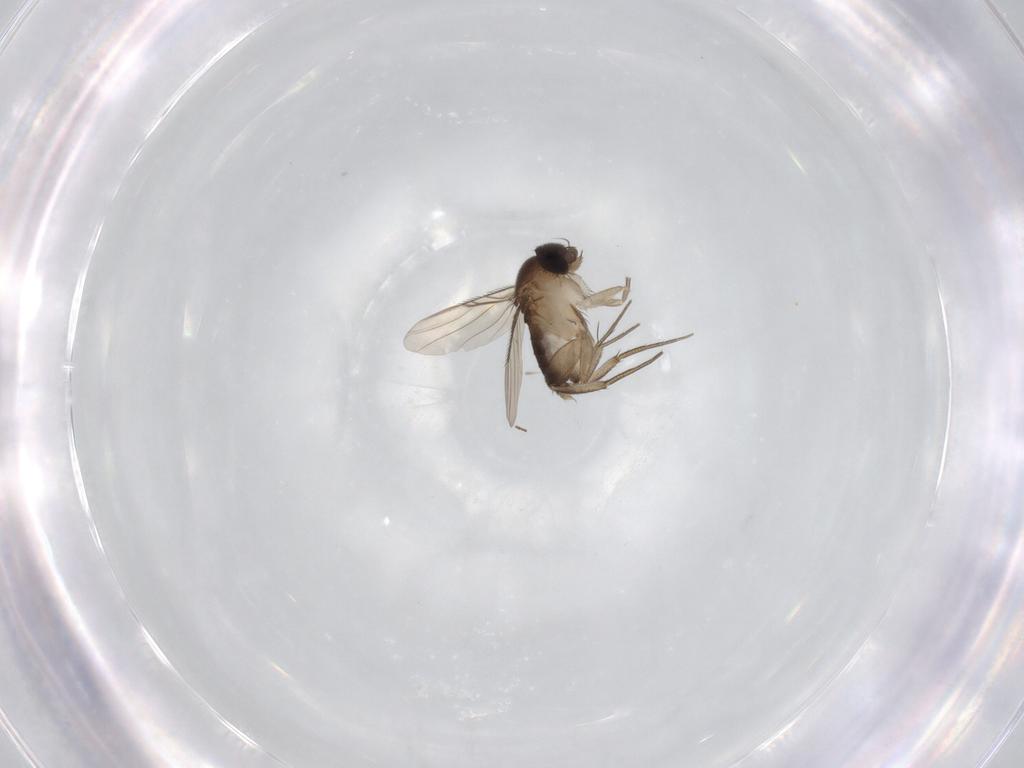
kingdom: Animalia
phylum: Arthropoda
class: Insecta
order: Diptera
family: Phoridae
